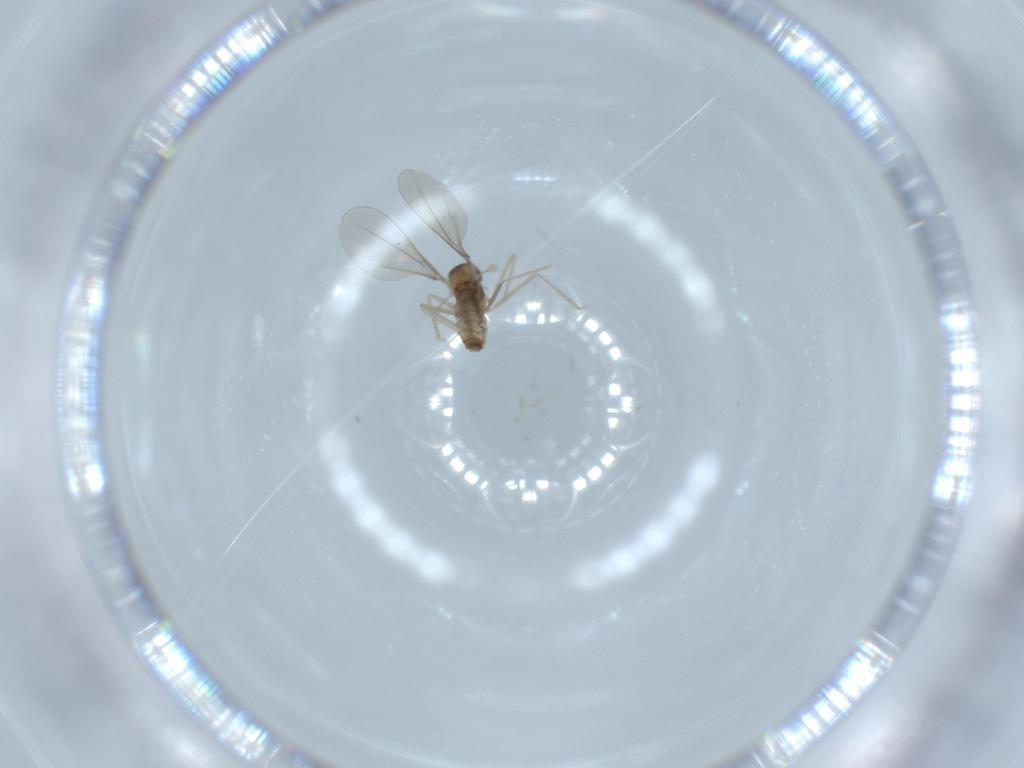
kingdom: Animalia
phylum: Arthropoda
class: Insecta
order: Diptera
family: Cecidomyiidae
